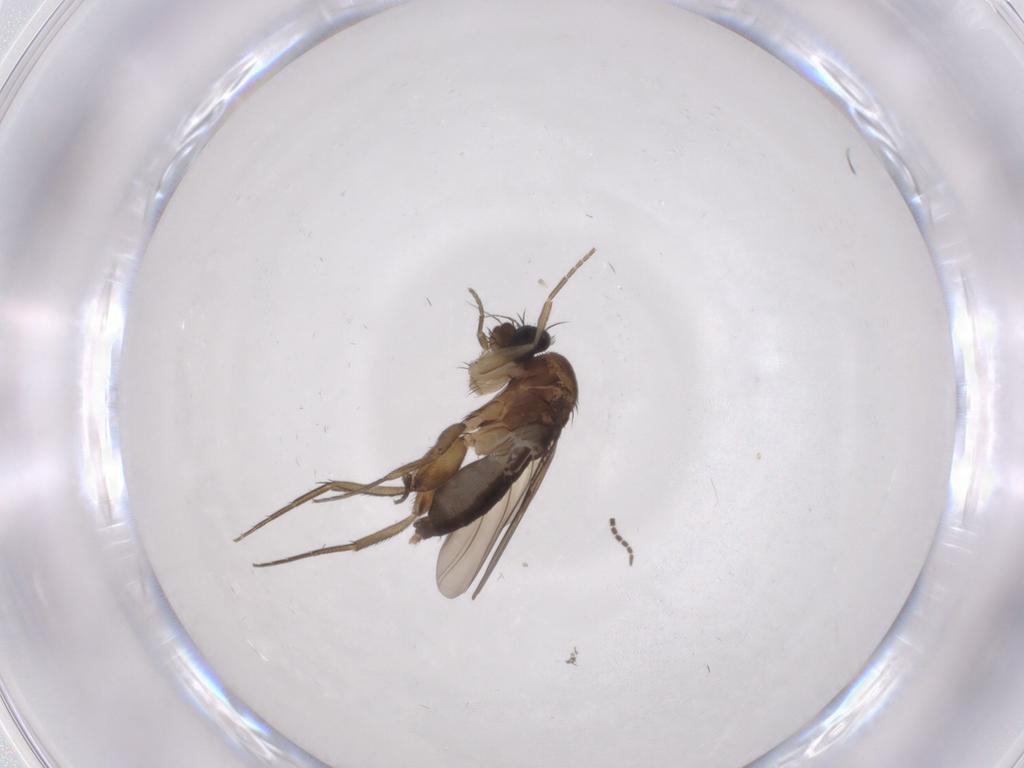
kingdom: Animalia
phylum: Arthropoda
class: Insecta
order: Diptera
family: Phoridae
